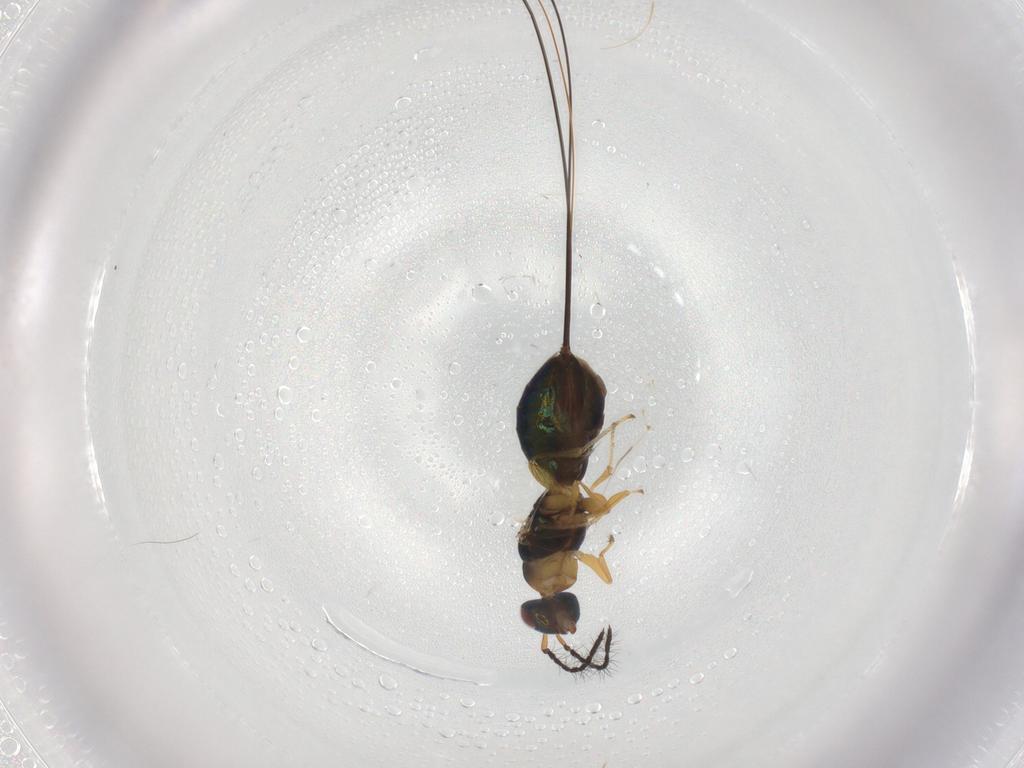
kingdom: Animalia
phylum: Arthropoda
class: Insecta
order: Hymenoptera
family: Pteromalidae
